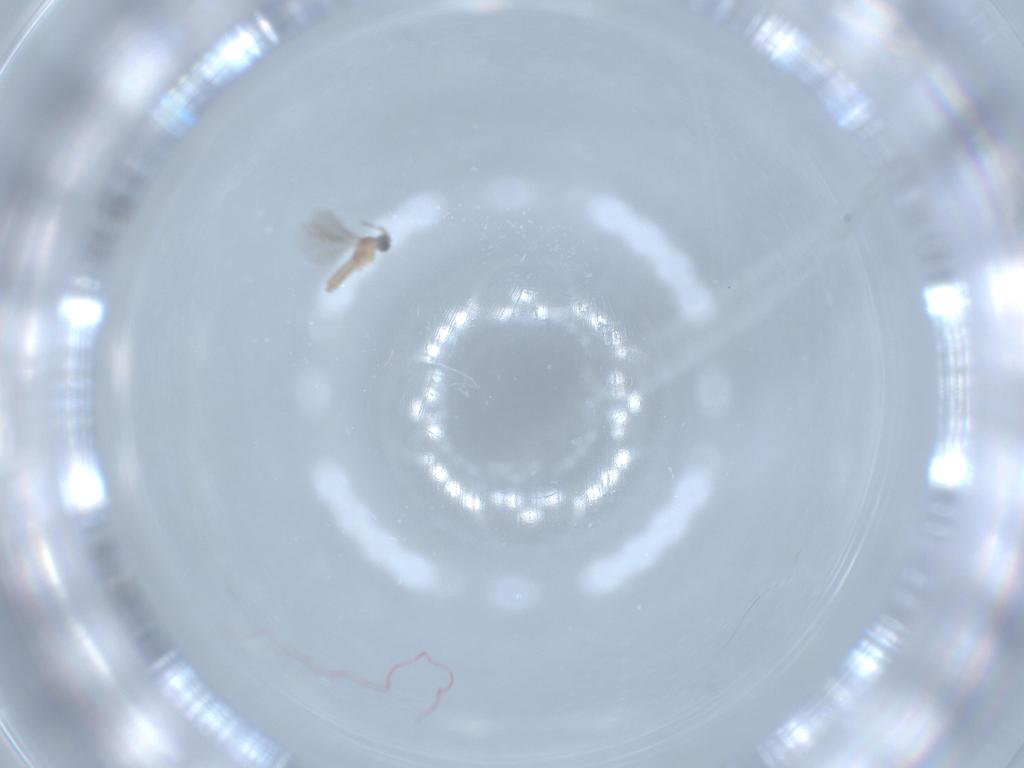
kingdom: Animalia
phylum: Arthropoda
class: Insecta
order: Diptera
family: Cecidomyiidae
